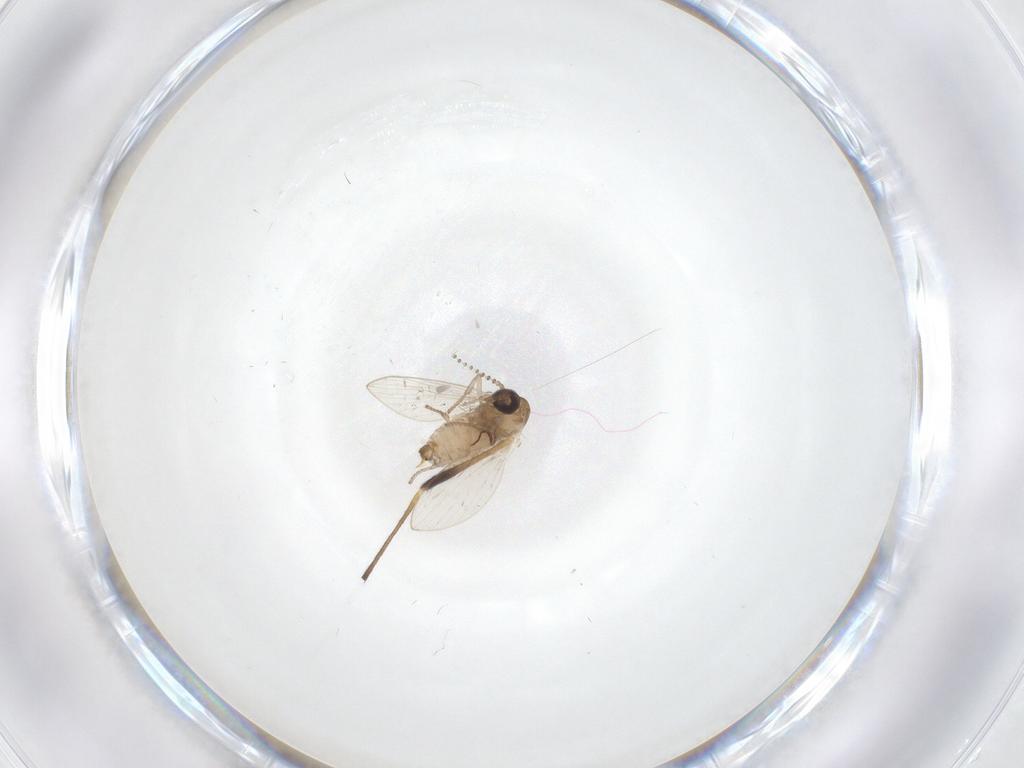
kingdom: Animalia
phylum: Arthropoda
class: Insecta
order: Diptera
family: Psychodidae
